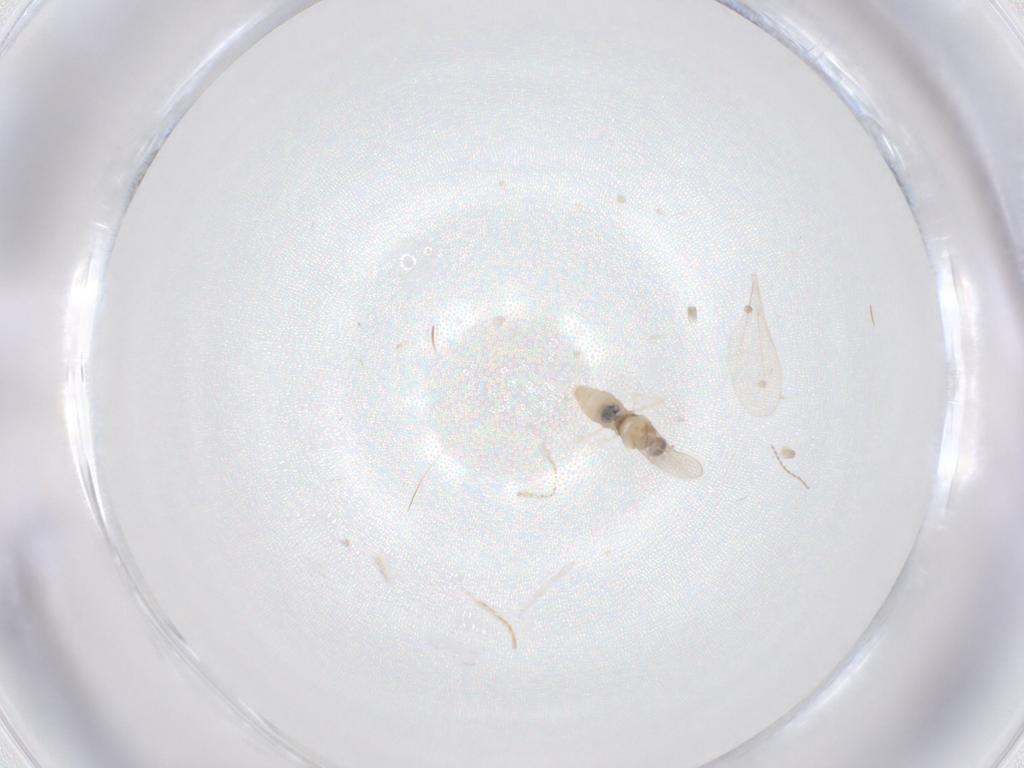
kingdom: Animalia
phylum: Arthropoda
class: Insecta
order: Diptera
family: Cecidomyiidae
